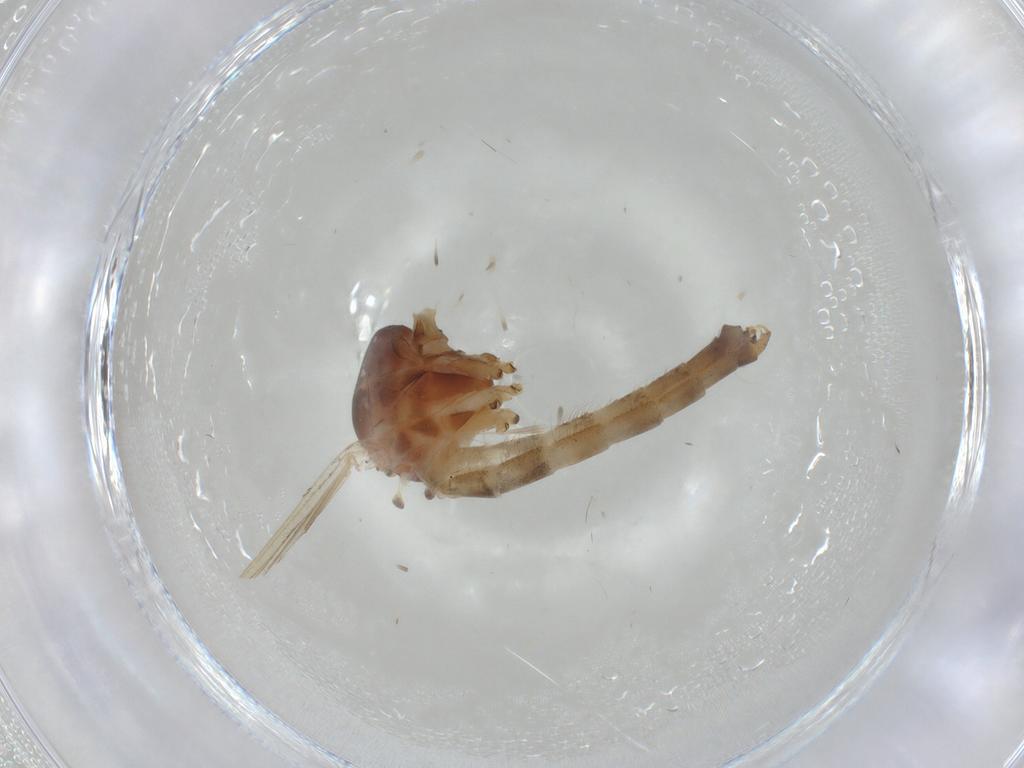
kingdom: Animalia
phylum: Arthropoda
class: Insecta
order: Diptera
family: Culicidae
